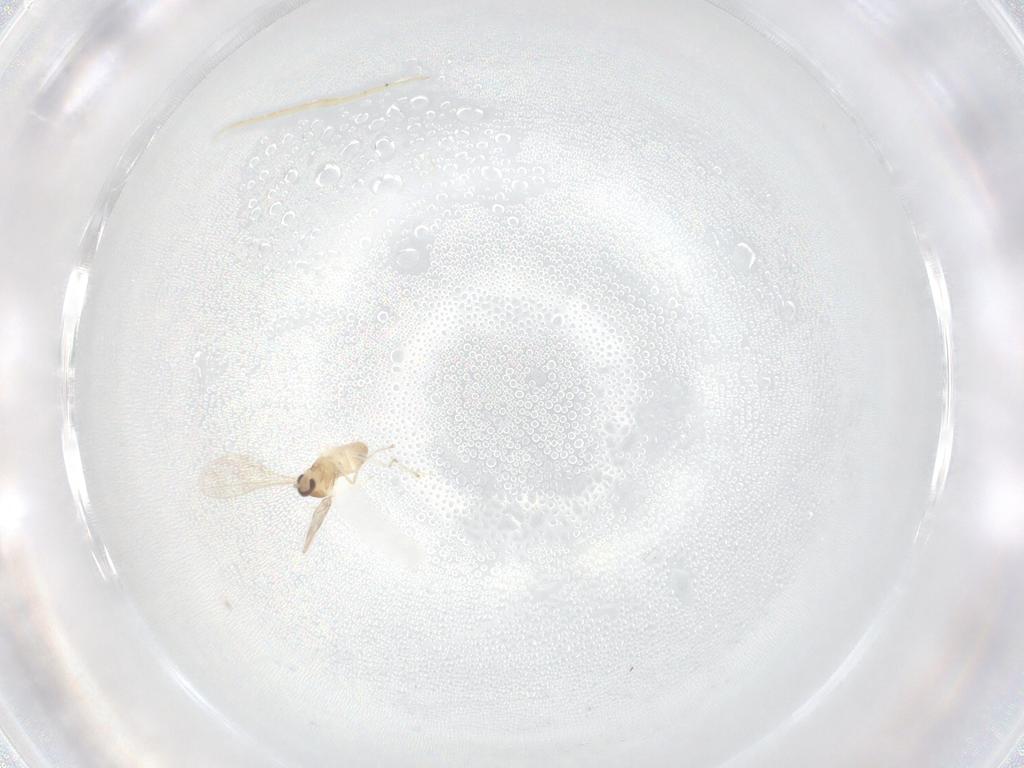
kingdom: Animalia
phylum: Arthropoda
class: Insecta
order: Diptera
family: Cecidomyiidae
